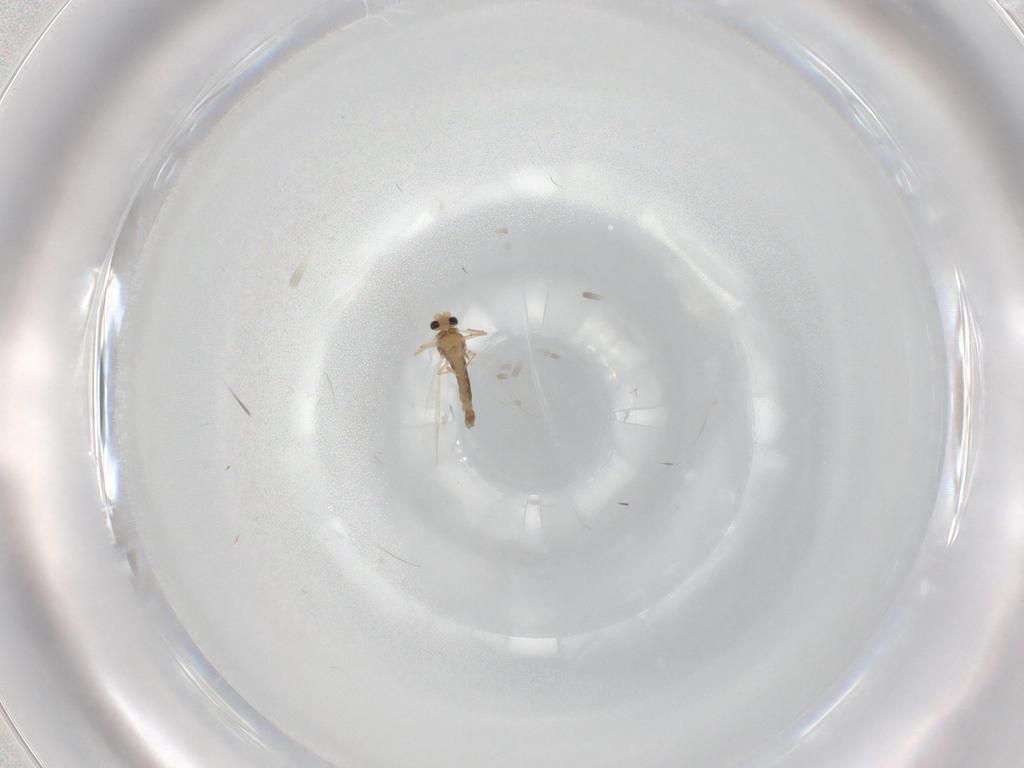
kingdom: Animalia
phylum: Arthropoda
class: Insecta
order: Diptera
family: Chironomidae
